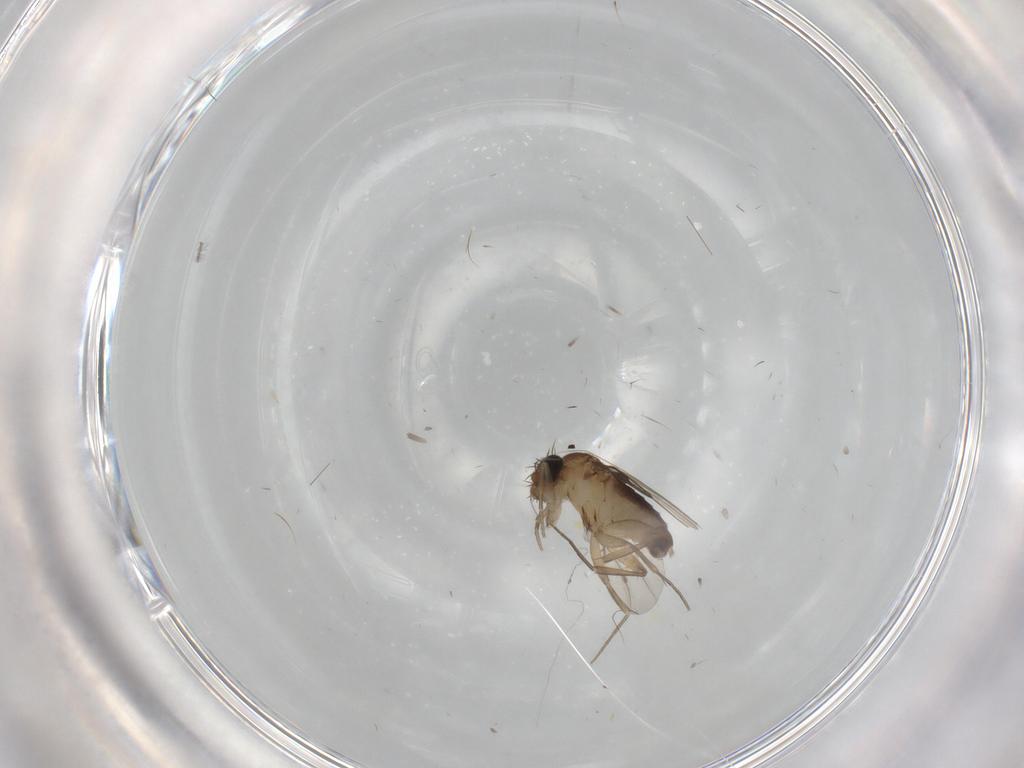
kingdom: Animalia
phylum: Arthropoda
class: Insecta
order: Diptera
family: Phoridae
